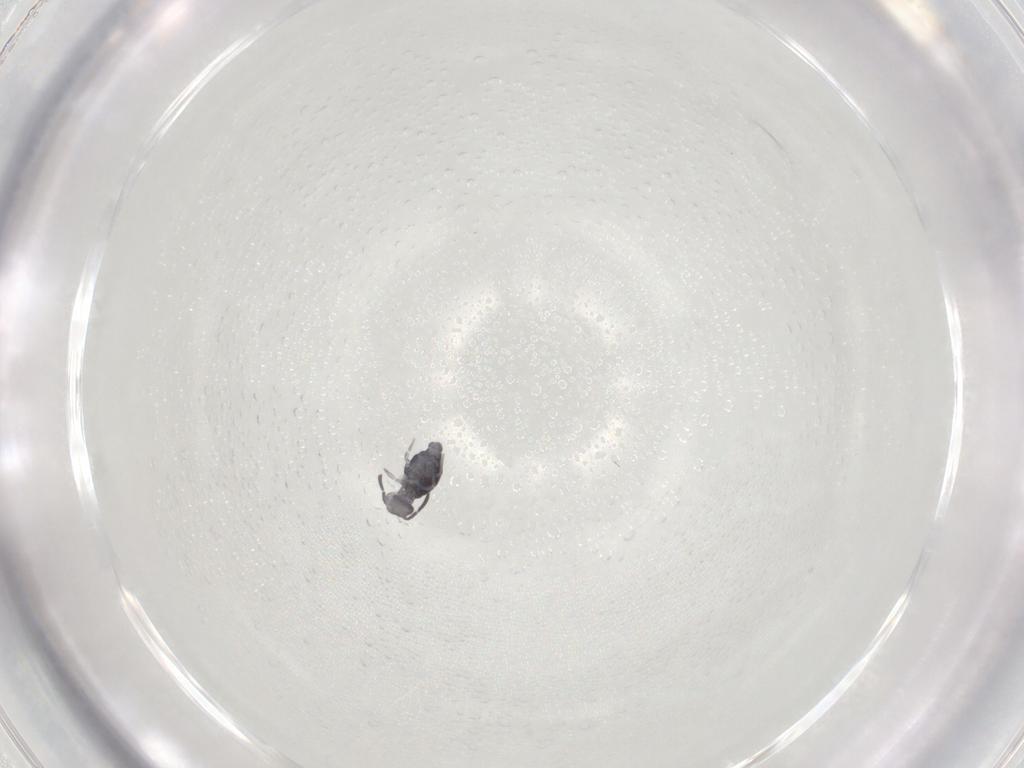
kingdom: Animalia
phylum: Arthropoda
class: Collembola
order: Symphypleona
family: Katiannidae
